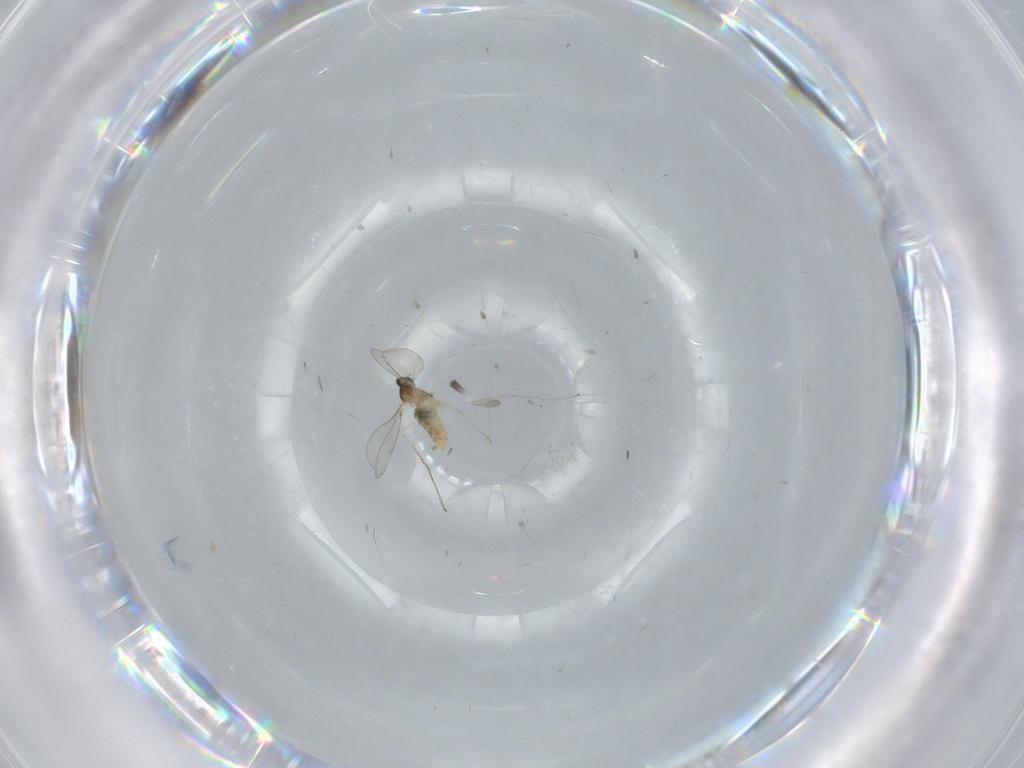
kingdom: Animalia
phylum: Arthropoda
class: Insecta
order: Diptera
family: Cecidomyiidae
